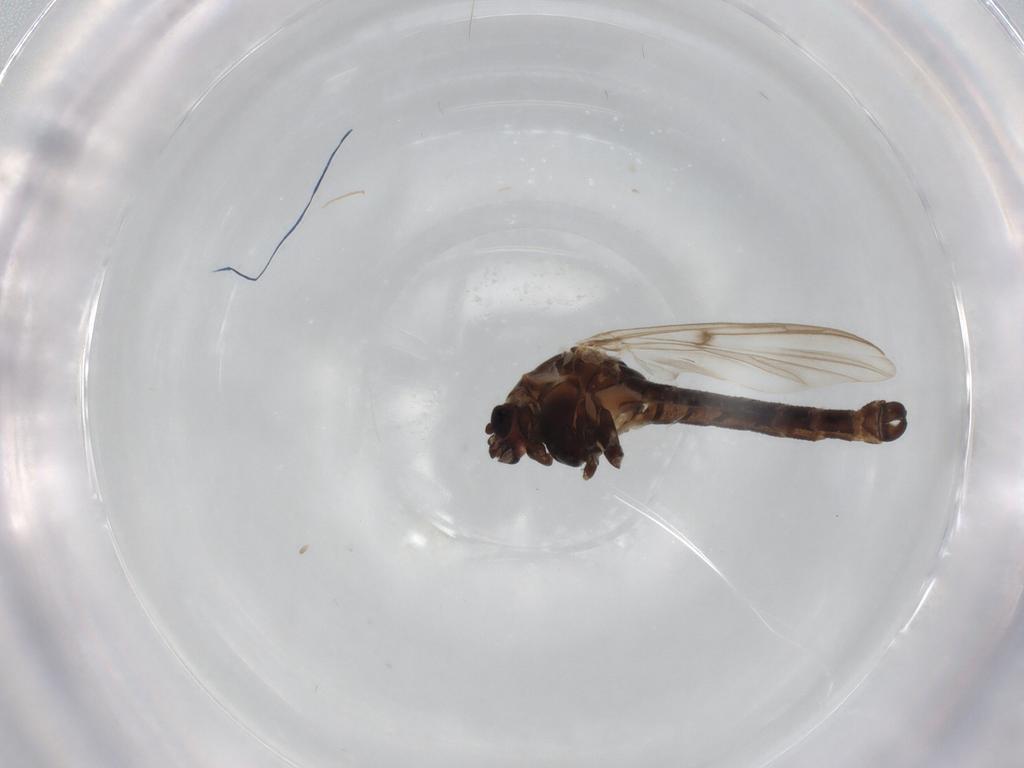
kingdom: Animalia
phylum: Arthropoda
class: Insecta
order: Diptera
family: Chironomidae
